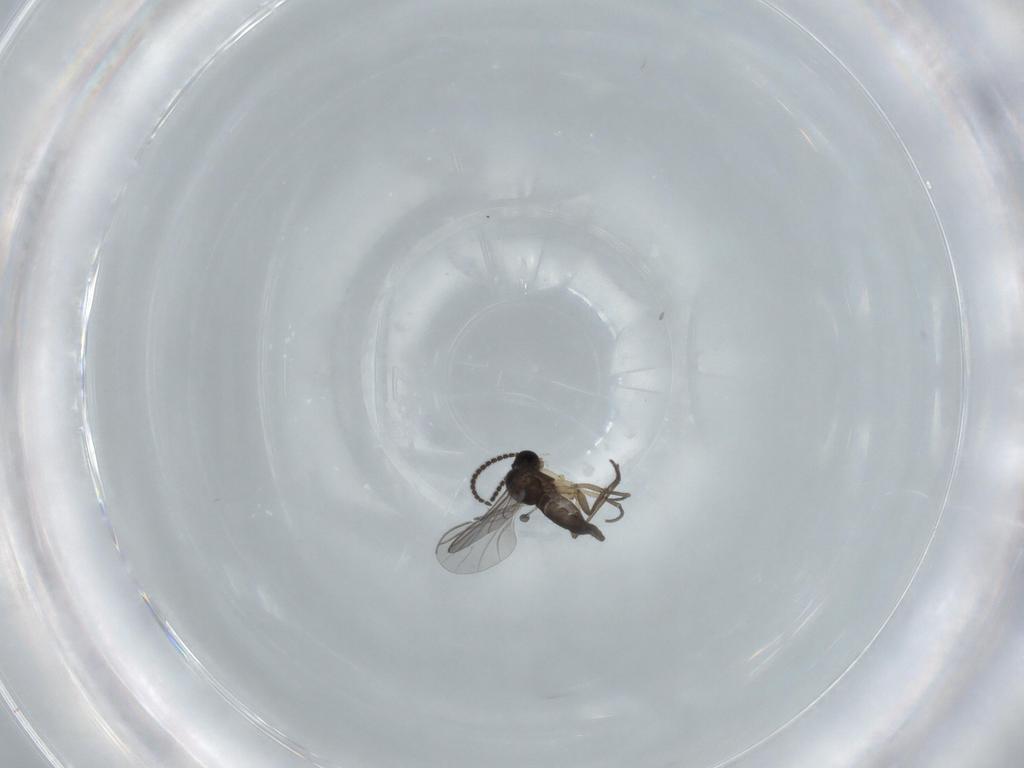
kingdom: Animalia
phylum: Arthropoda
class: Insecta
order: Diptera
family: Sciaridae
